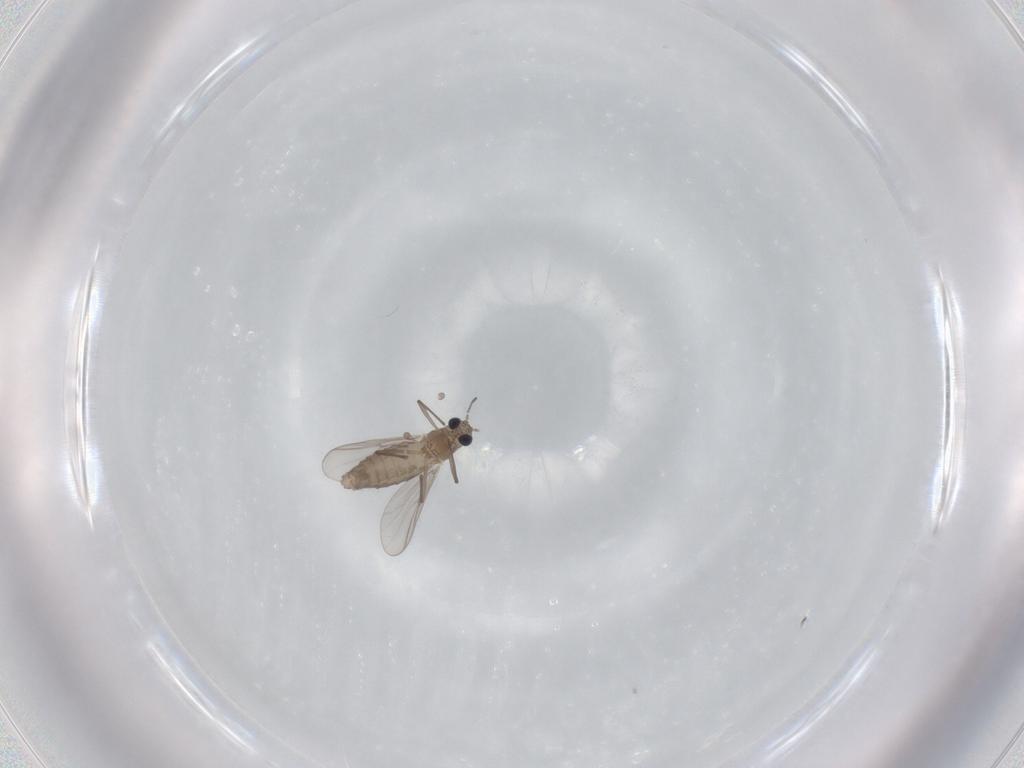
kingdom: Animalia
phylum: Arthropoda
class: Insecta
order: Diptera
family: Chironomidae
